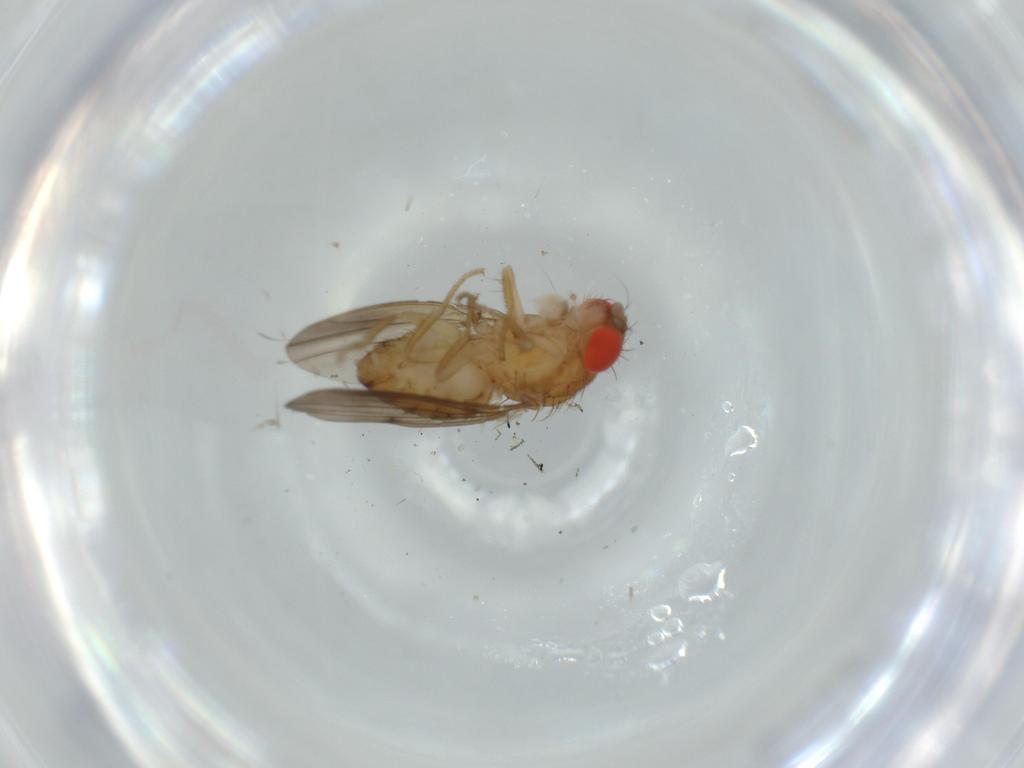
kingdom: Animalia
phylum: Arthropoda
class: Insecta
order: Diptera
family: Drosophilidae
